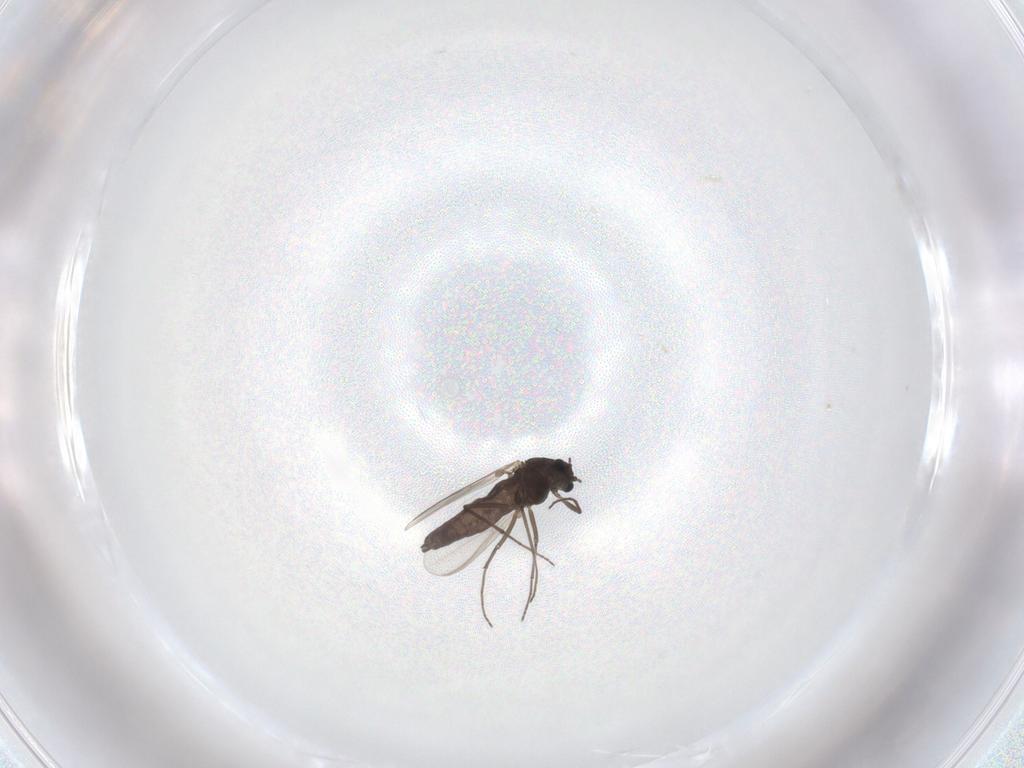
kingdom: Animalia
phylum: Arthropoda
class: Insecta
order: Diptera
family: Chironomidae
